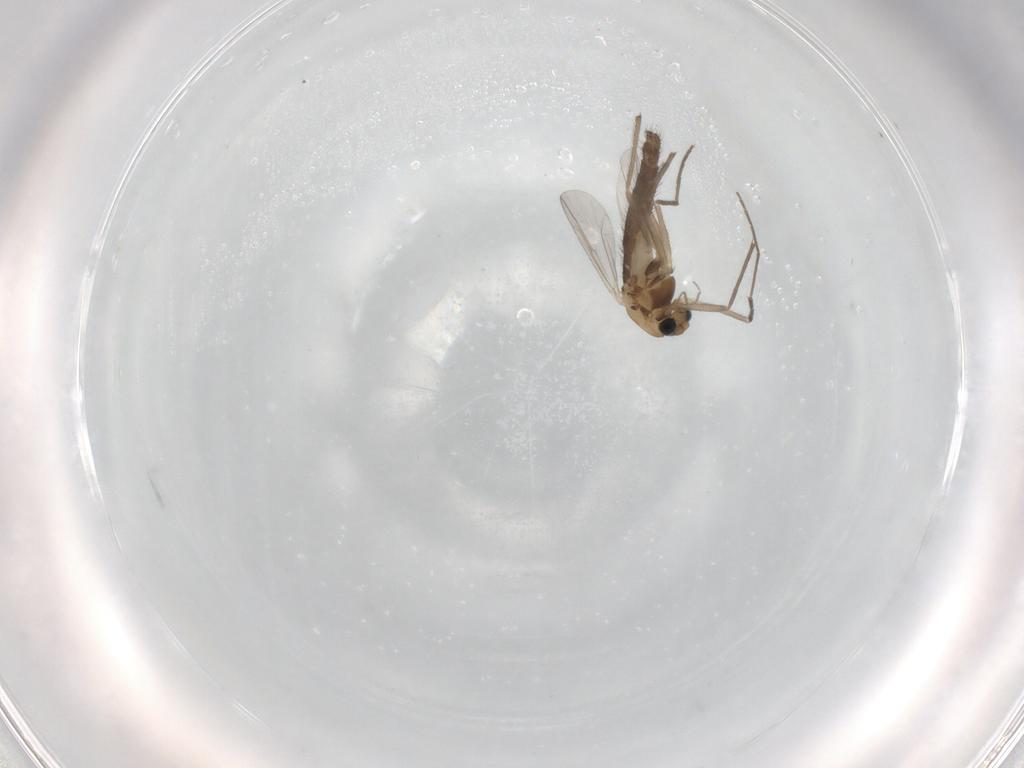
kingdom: Animalia
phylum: Arthropoda
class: Insecta
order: Diptera
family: Chironomidae
